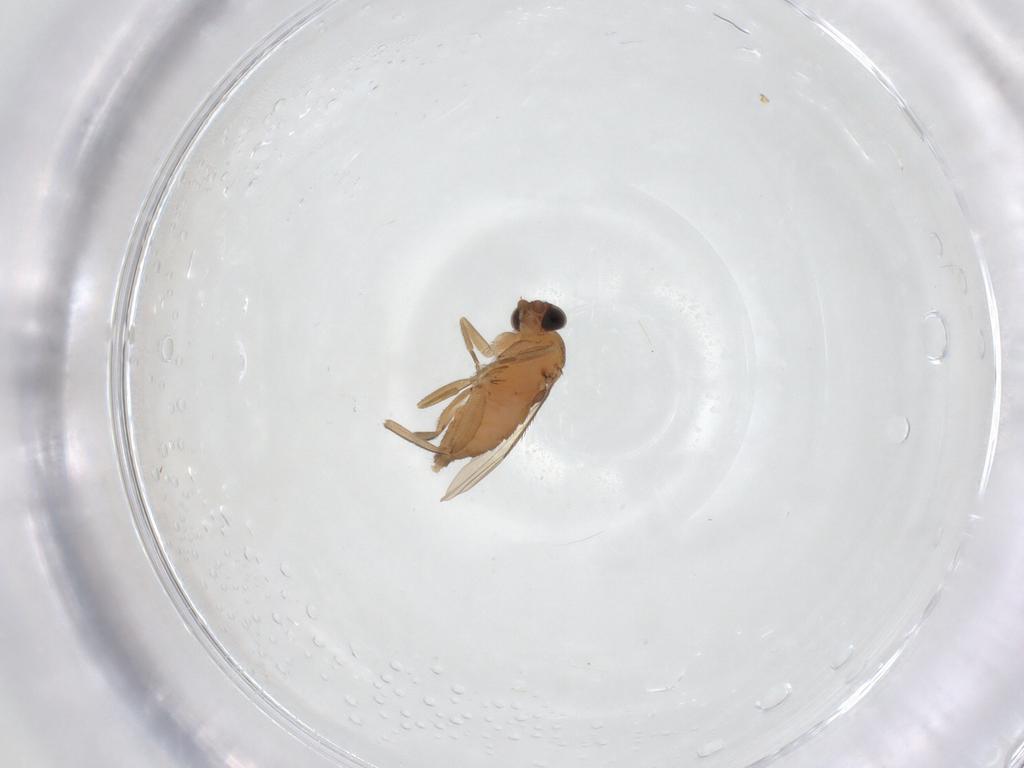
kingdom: Animalia
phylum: Arthropoda
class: Insecta
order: Diptera
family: Phoridae
